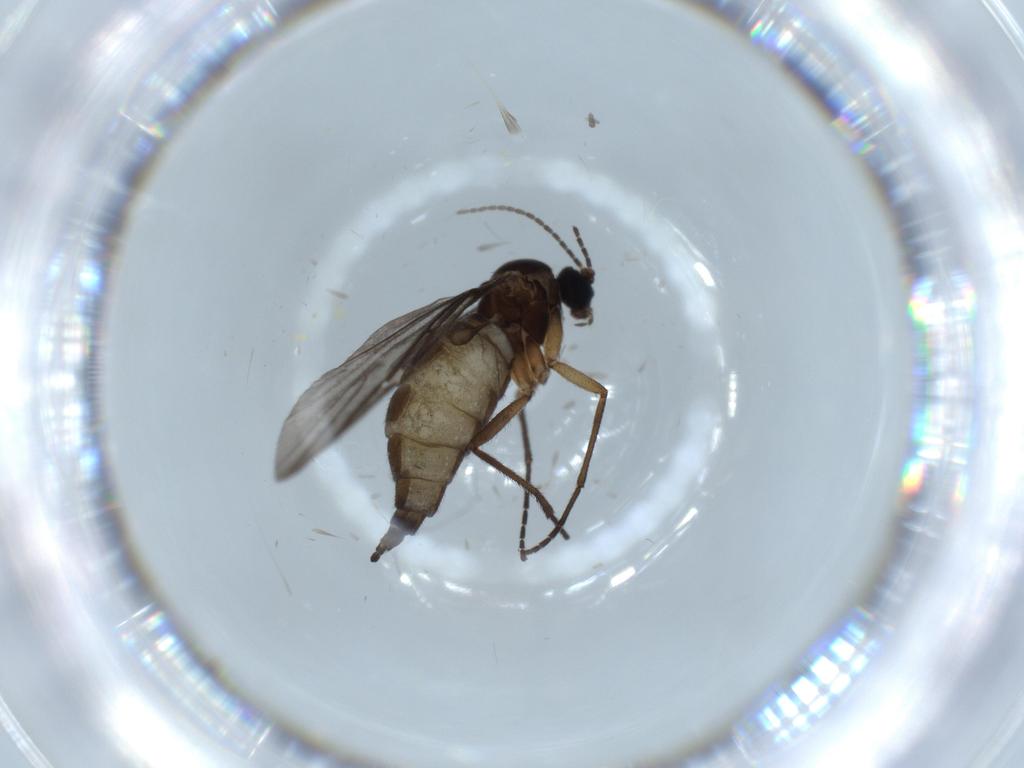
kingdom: Animalia
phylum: Arthropoda
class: Insecta
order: Diptera
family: Sciaridae
